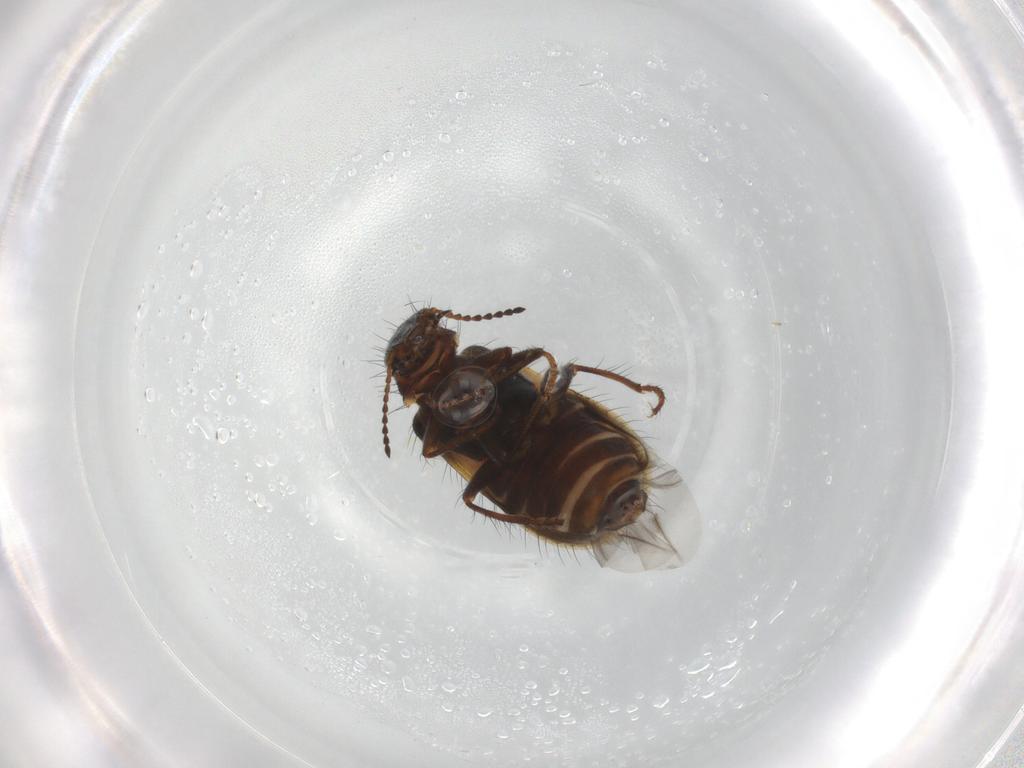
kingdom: Animalia
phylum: Arthropoda
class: Insecta
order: Coleoptera
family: Melyridae
